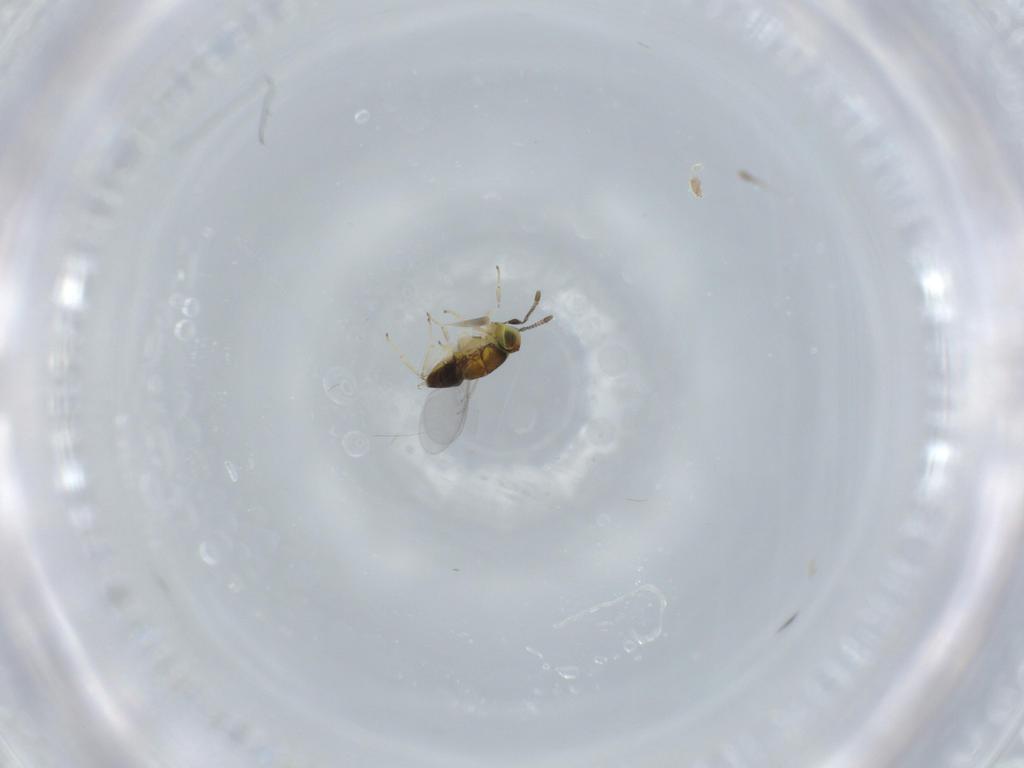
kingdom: Animalia
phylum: Arthropoda
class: Insecta
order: Hymenoptera
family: Encyrtidae
